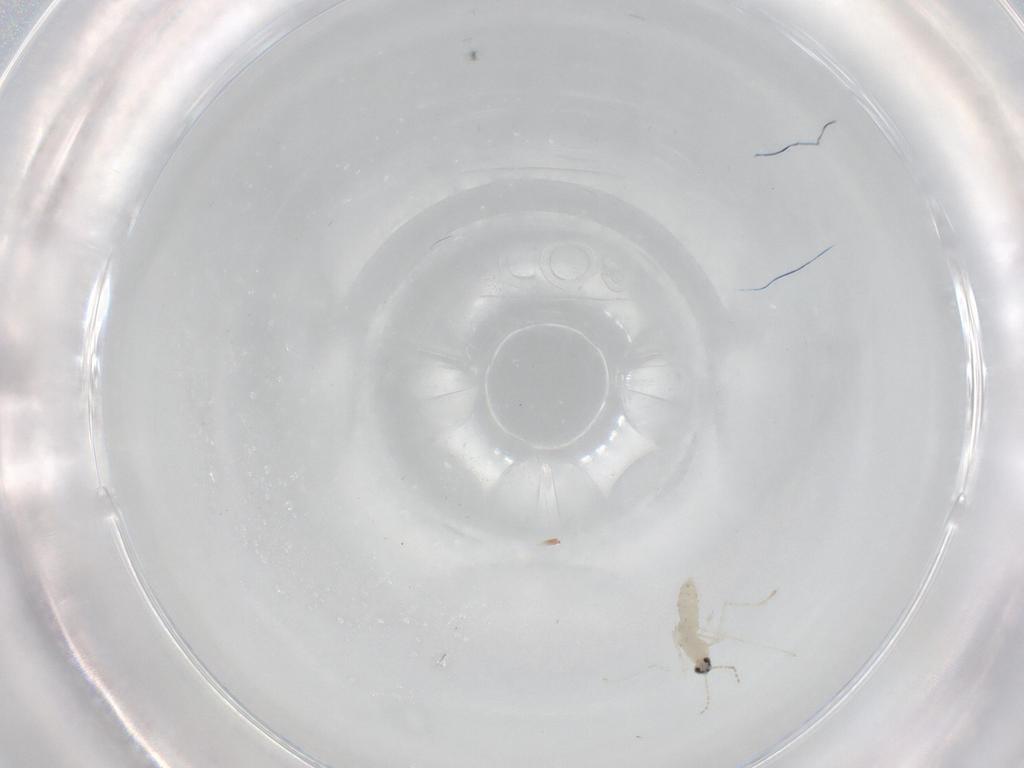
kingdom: Animalia
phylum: Arthropoda
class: Insecta
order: Diptera
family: Cecidomyiidae
